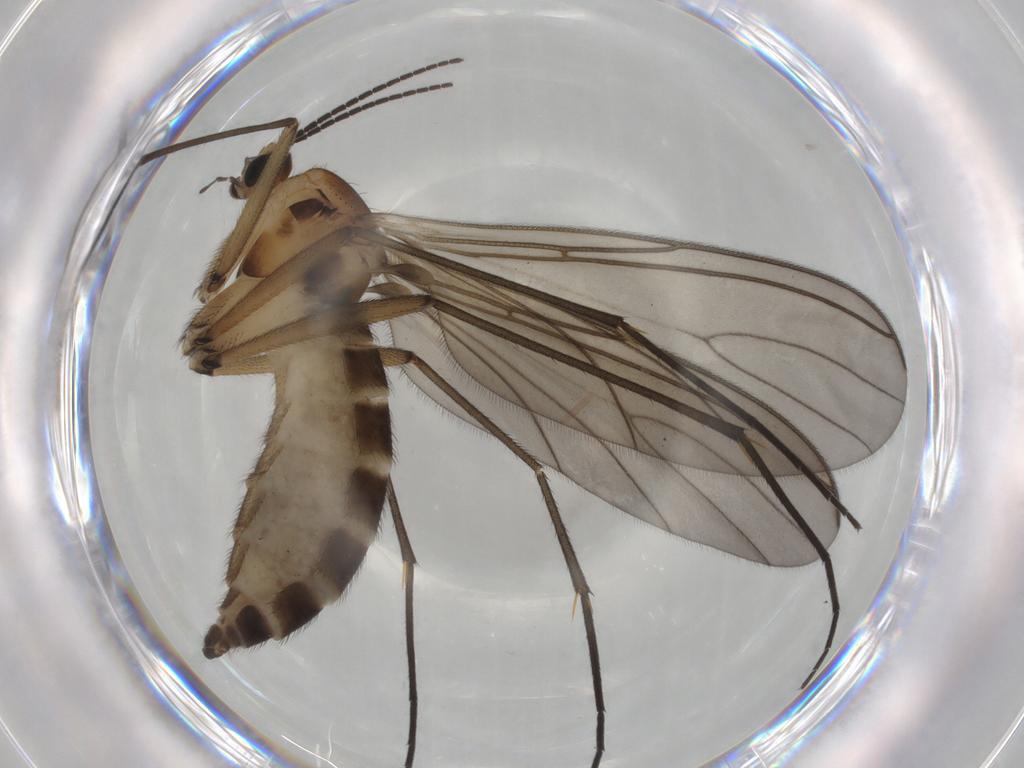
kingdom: Animalia
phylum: Arthropoda
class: Insecta
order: Diptera
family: Sciaridae
